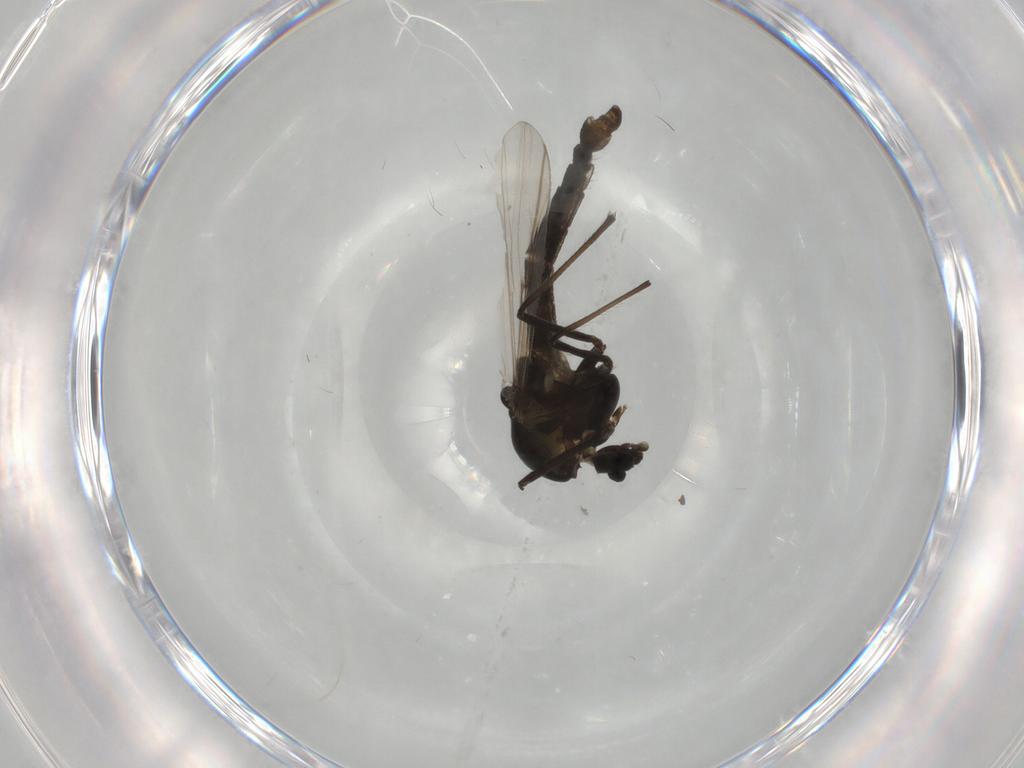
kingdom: Animalia
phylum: Arthropoda
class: Insecta
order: Diptera
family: Chironomidae
